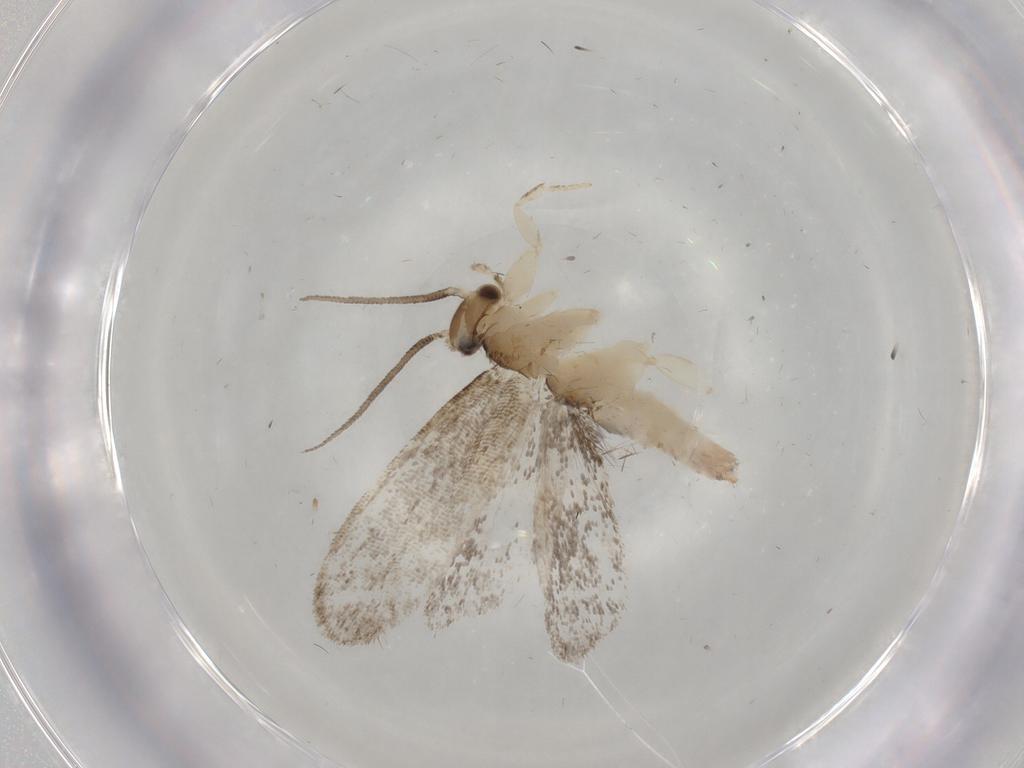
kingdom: Animalia
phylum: Arthropoda
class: Insecta
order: Lepidoptera
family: Dryadaulidae
